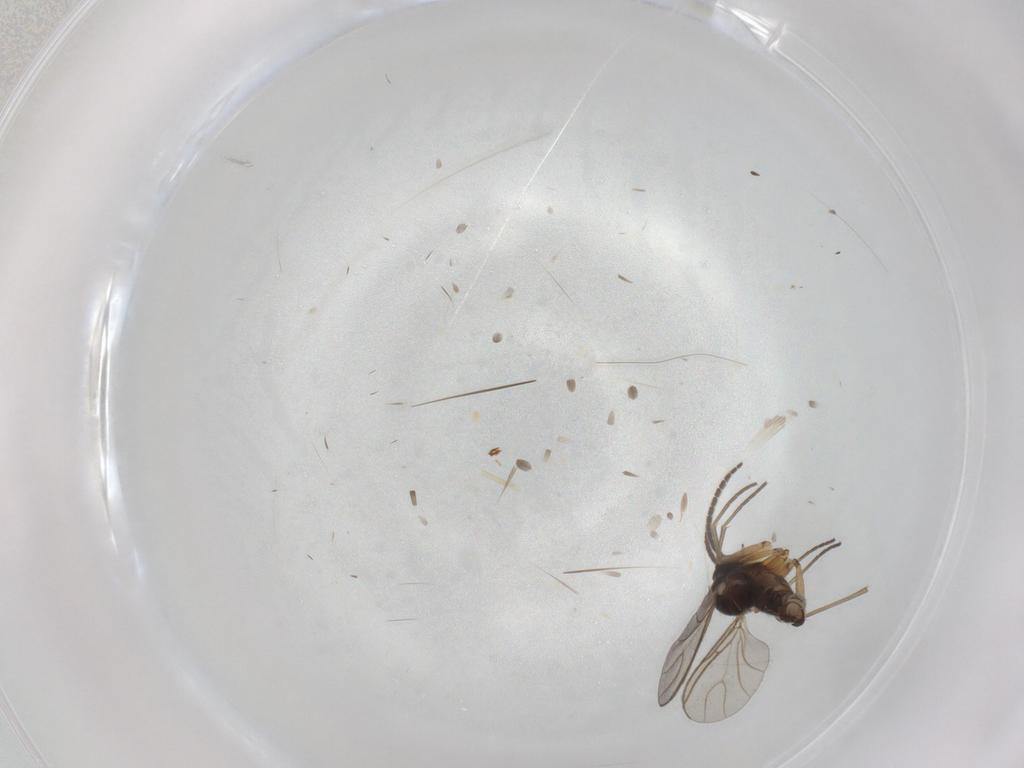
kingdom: Animalia
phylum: Arthropoda
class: Insecta
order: Diptera
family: Sciaridae
